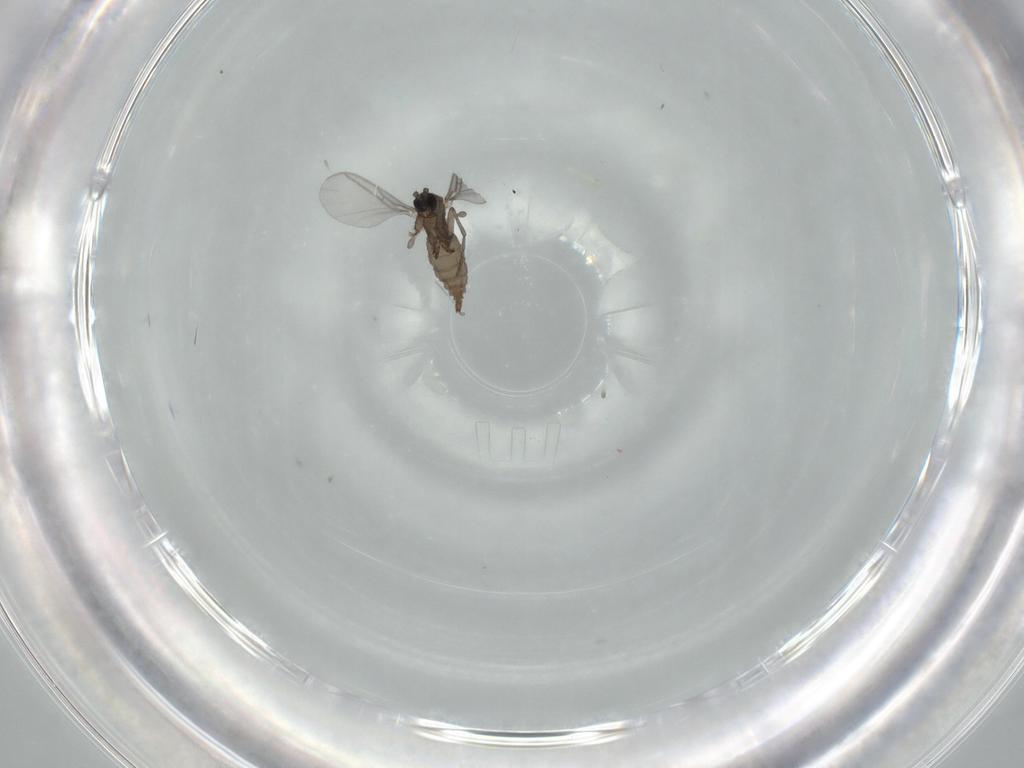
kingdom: Animalia
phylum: Arthropoda
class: Insecta
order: Diptera
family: Sciaridae
